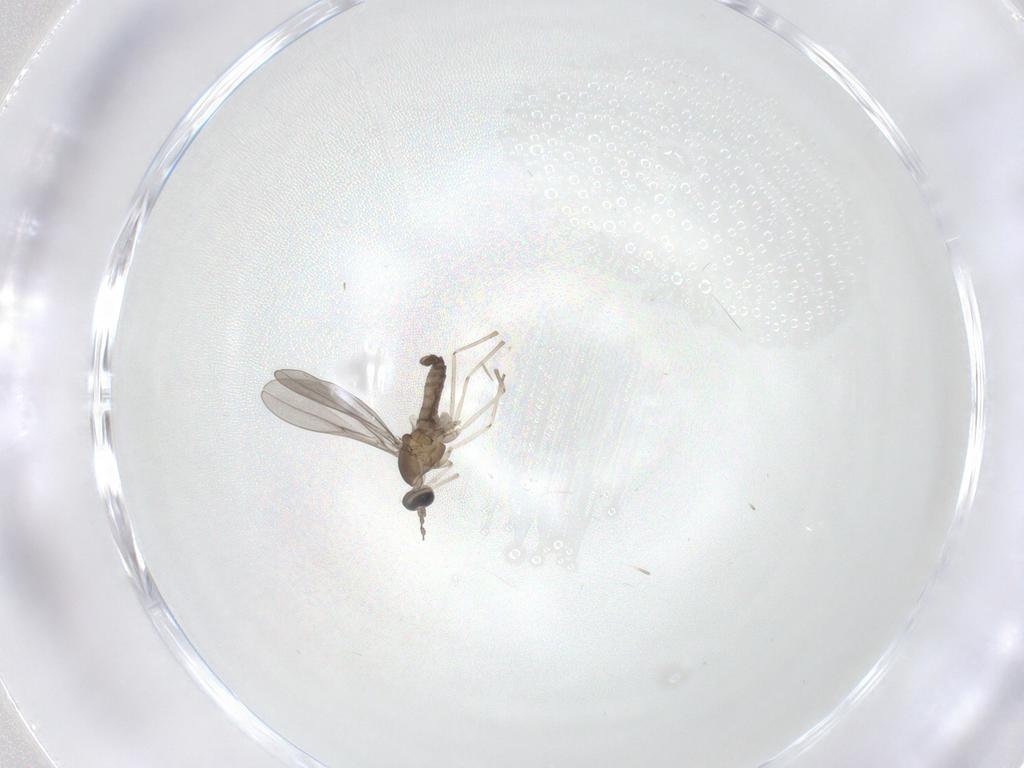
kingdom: Animalia
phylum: Arthropoda
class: Insecta
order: Diptera
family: Cecidomyiidae
